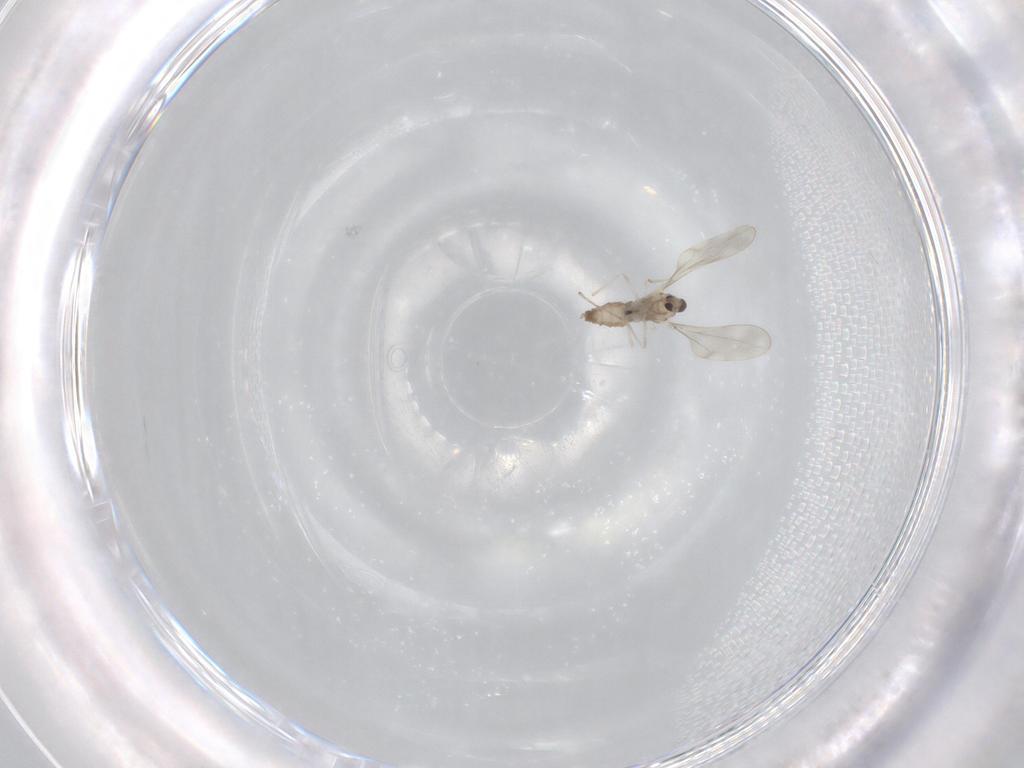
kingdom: Animalia
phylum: Arthropoda
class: Insecta
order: Diptera
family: Cecidomyiidae
